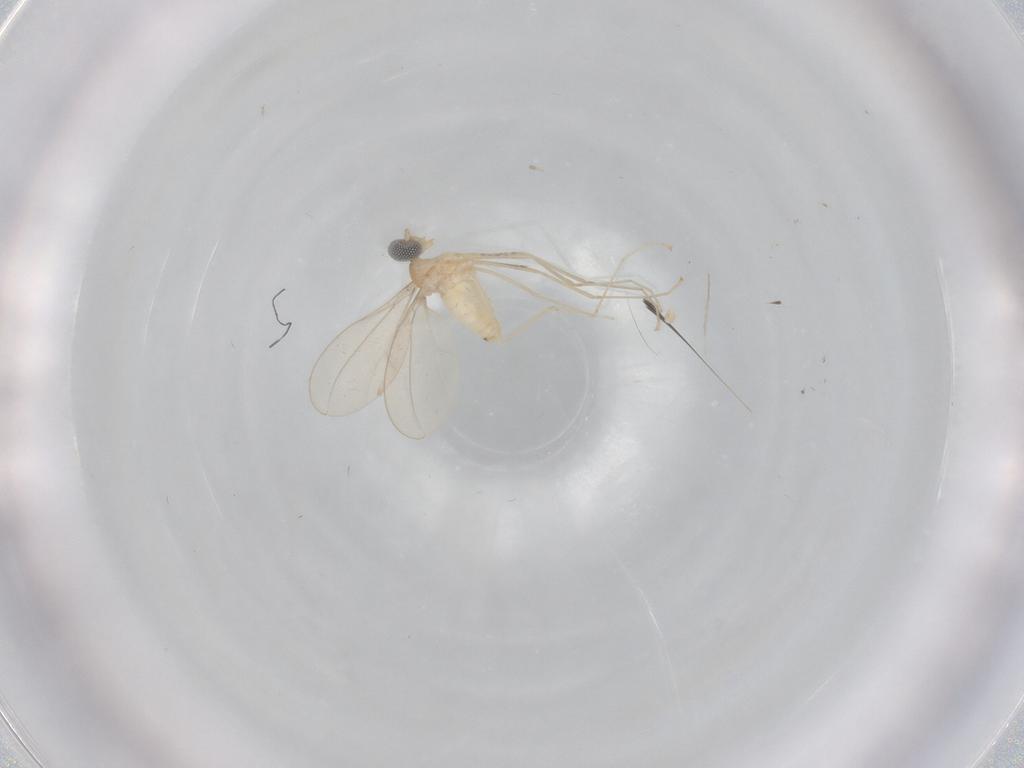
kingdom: Animalia
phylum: Arthropoda
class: Insecta
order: Diptera
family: Cecidomyiidae
